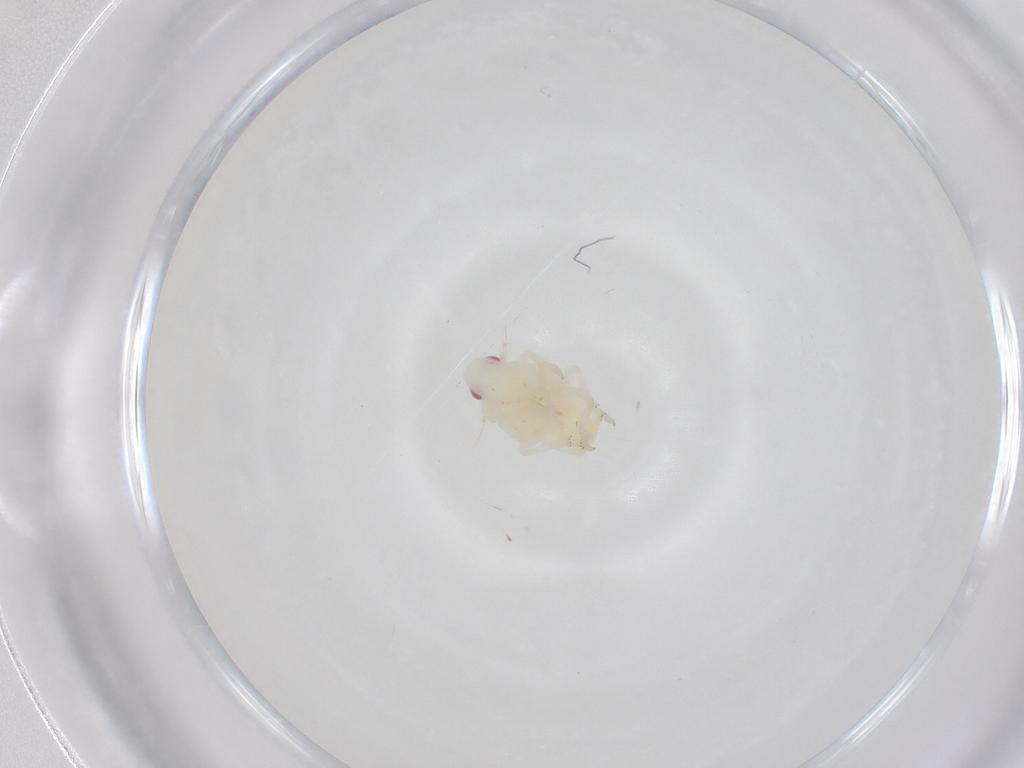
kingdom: Animalia
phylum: Arthropoda
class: Insecta
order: Hemiptera
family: Flatidae
